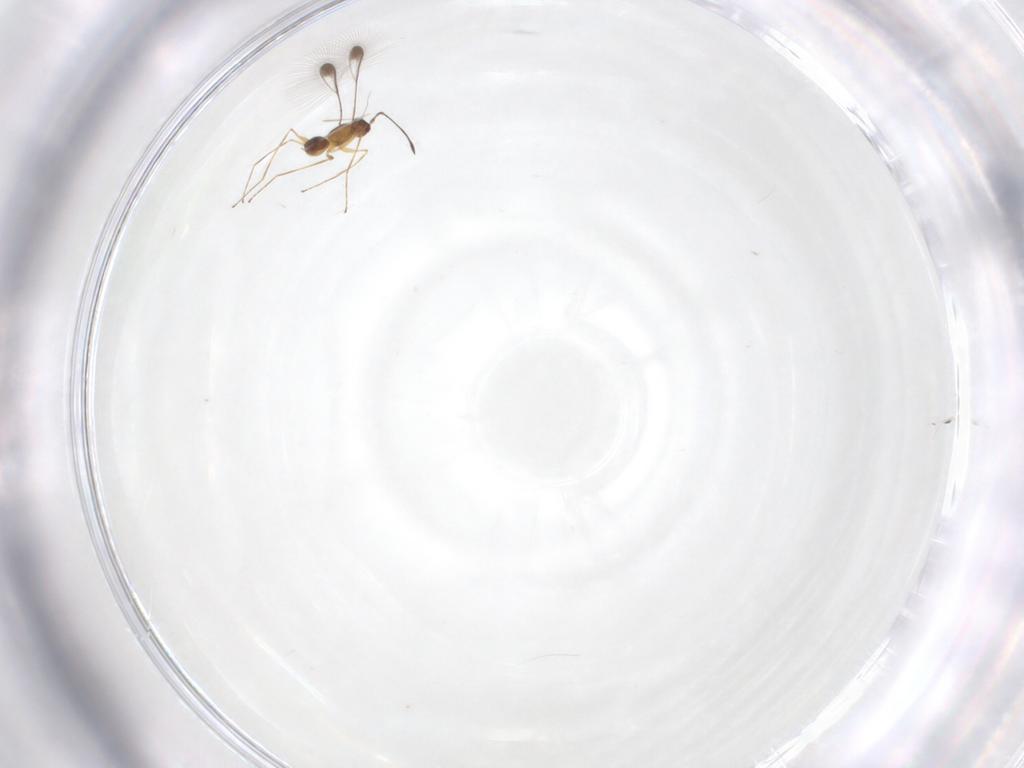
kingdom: Animalia
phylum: Arthropoda
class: Insecta
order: Hymenoptera
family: Mymaridae
